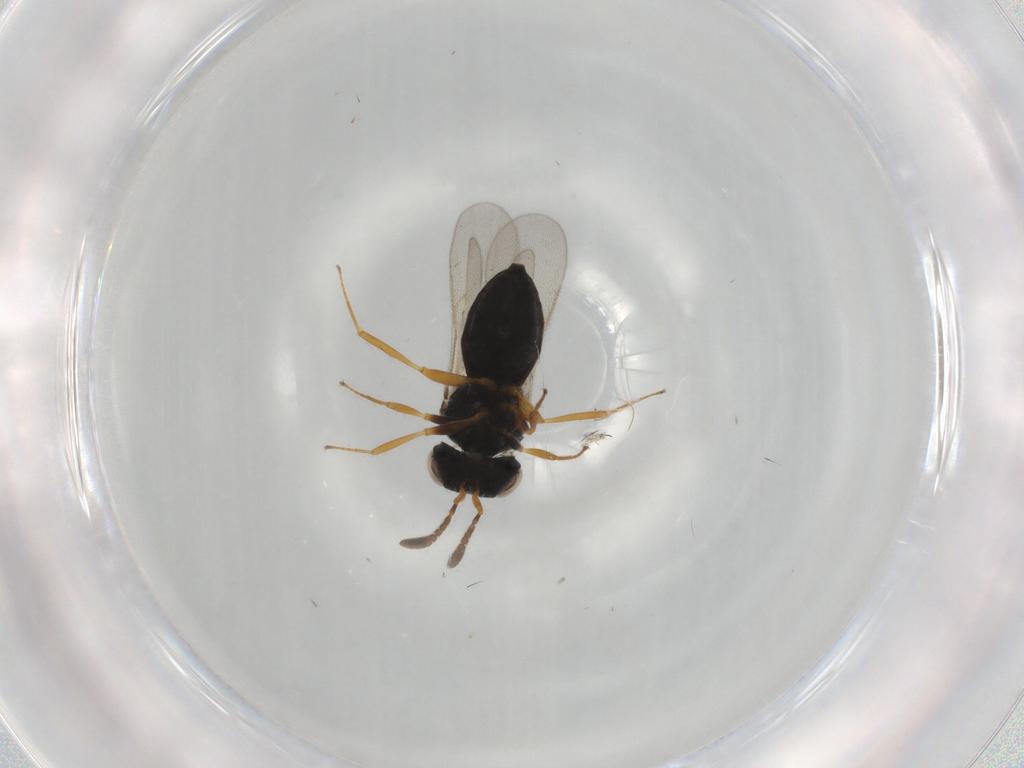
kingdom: Animalia
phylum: Arthropoda
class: Insecta
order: Hymenoptera
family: Scelionidae
